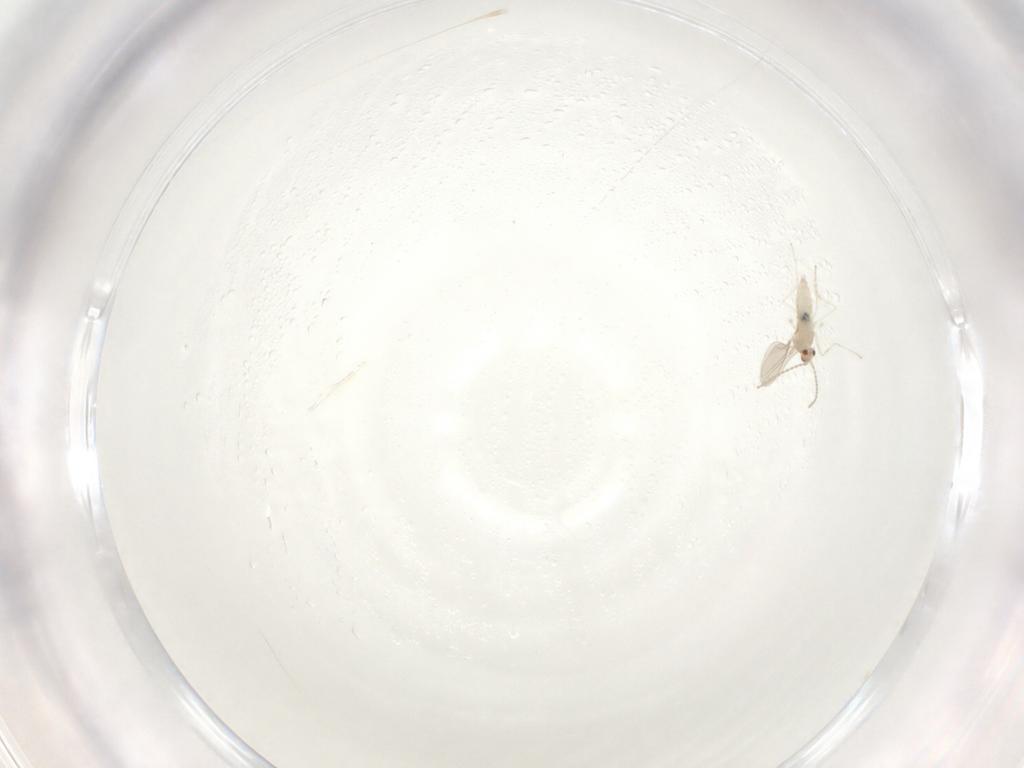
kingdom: Animalia
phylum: Arthropoda
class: Insecta
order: Diptera
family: Cecidomyiidae
